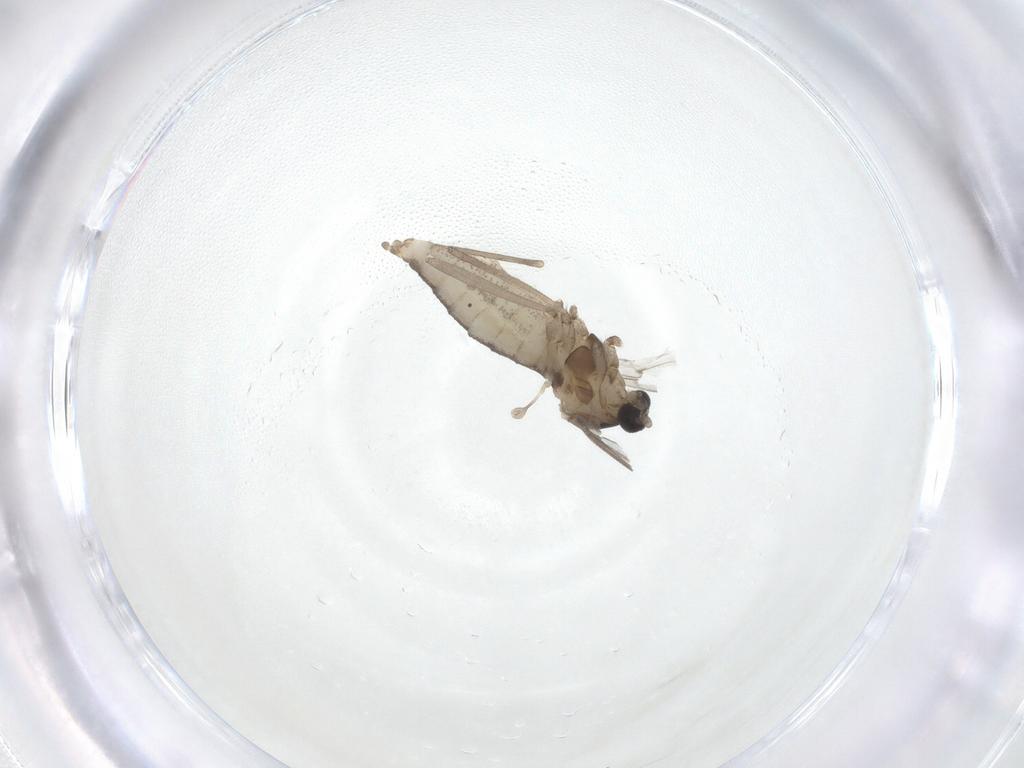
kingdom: Animalia
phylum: Arthropoda
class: Insecta
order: Diptera
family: Cecidomyiidae
